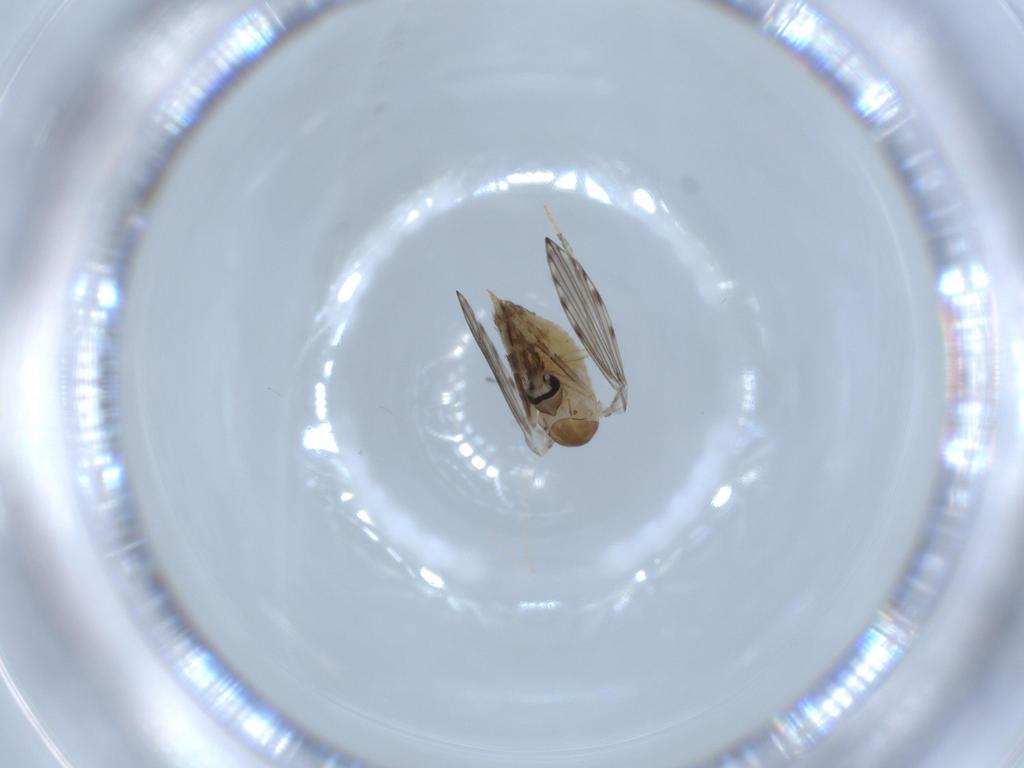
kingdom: Animalia
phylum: Arthropoda
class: Insecta
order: Diptera
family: Psychodidae
